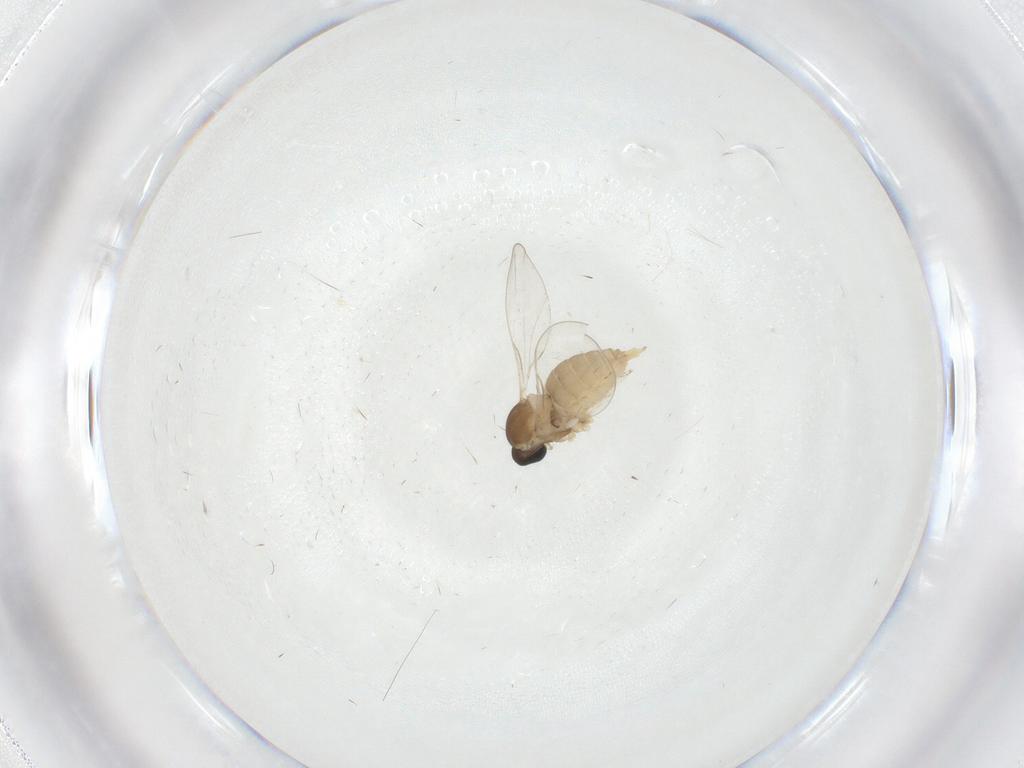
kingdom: Animalia
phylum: Arthropoda
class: Insecta
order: Diptera
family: Cecidomyiidae
